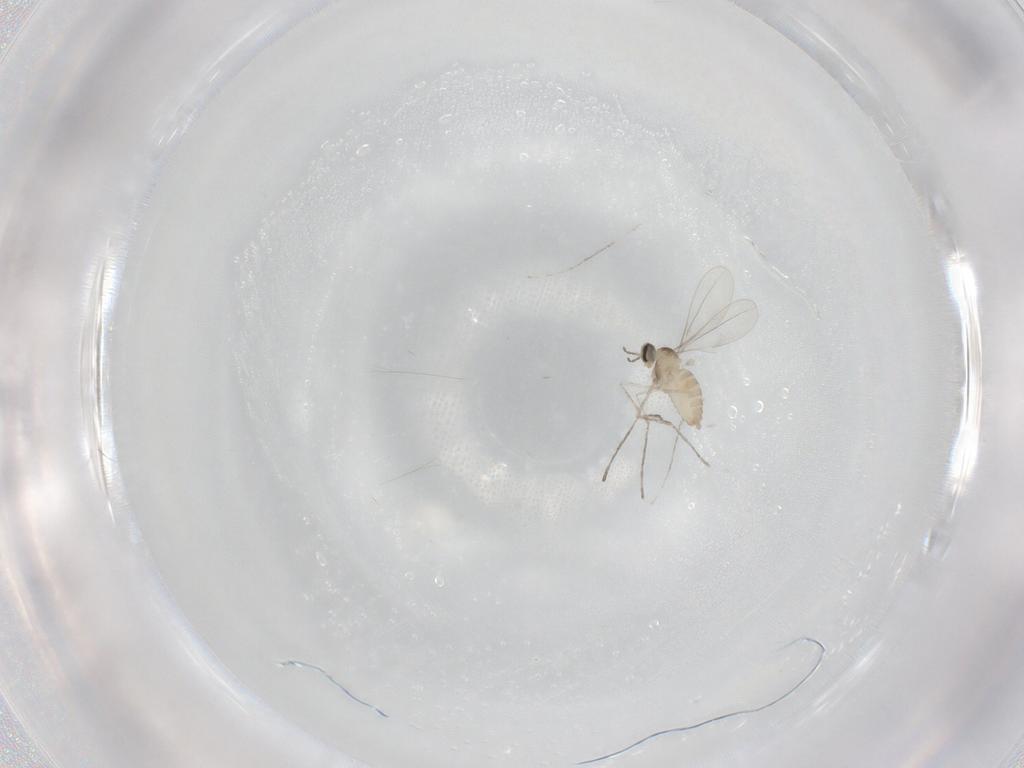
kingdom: Animalia
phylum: Arthropoda
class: Insecta
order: Diptera
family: Cecidomyiidae
